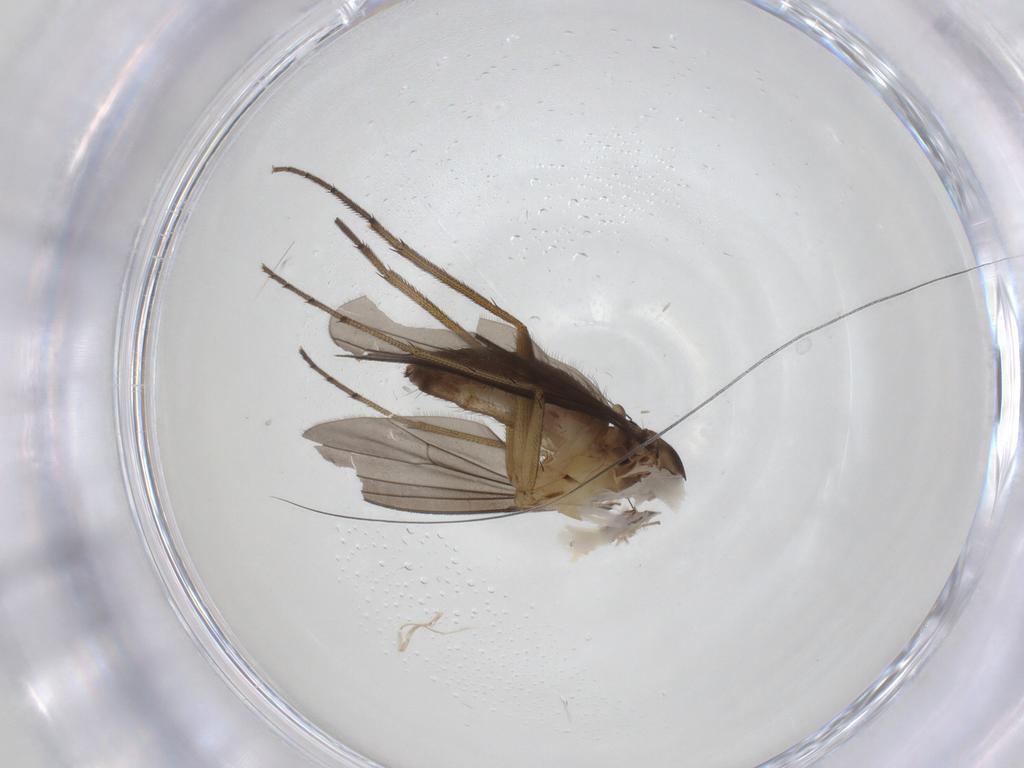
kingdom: Animalia
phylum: Arthropoda
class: Insecta
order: Diptera
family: Dolichopodidae
